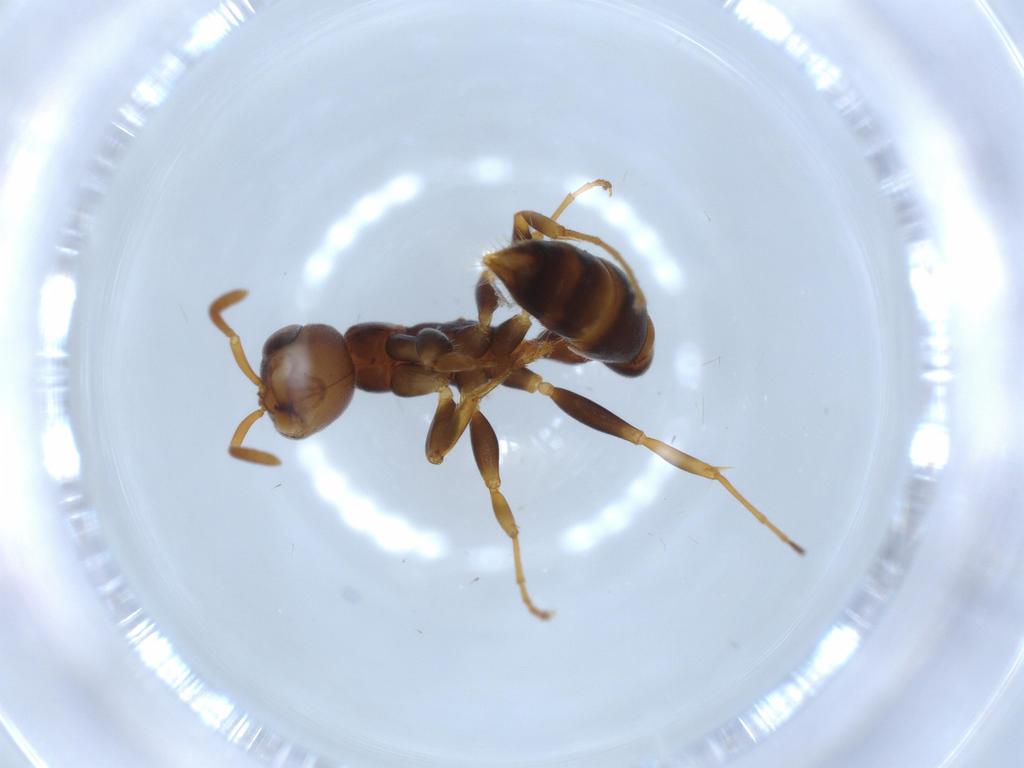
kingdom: Animalia
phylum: Arthropoda
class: Insecta
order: Hymenoptera
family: Formicidae
